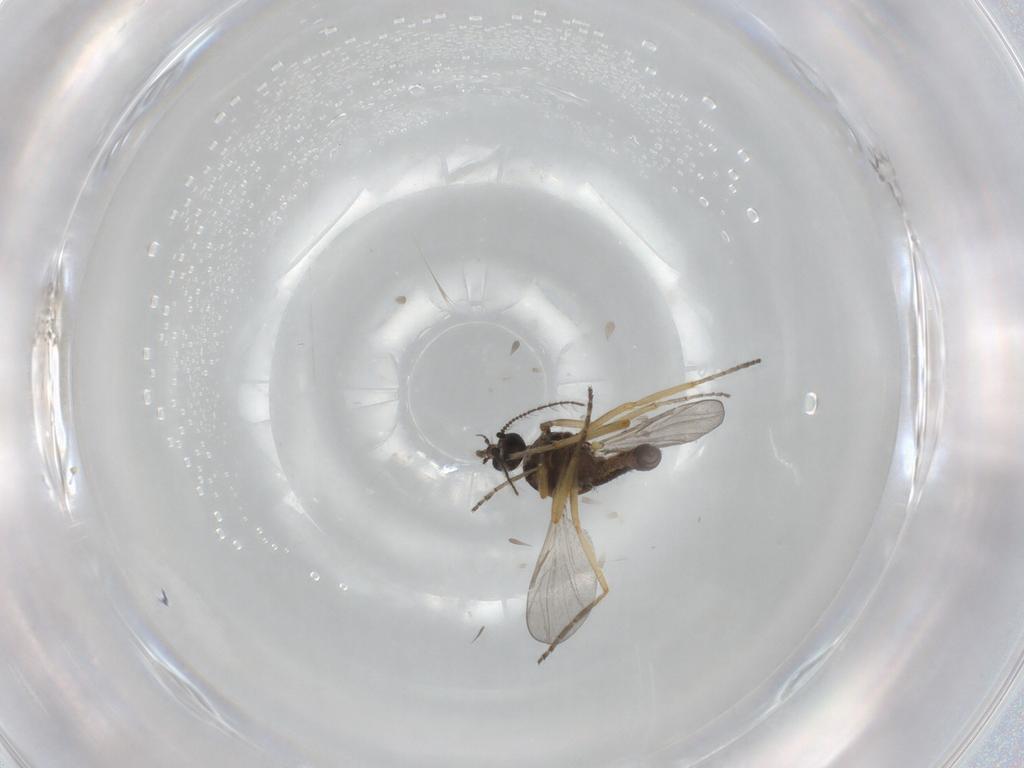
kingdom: Animalia
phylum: Arthropoda
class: Insecta
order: Diptera
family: Ceratopogonidae
